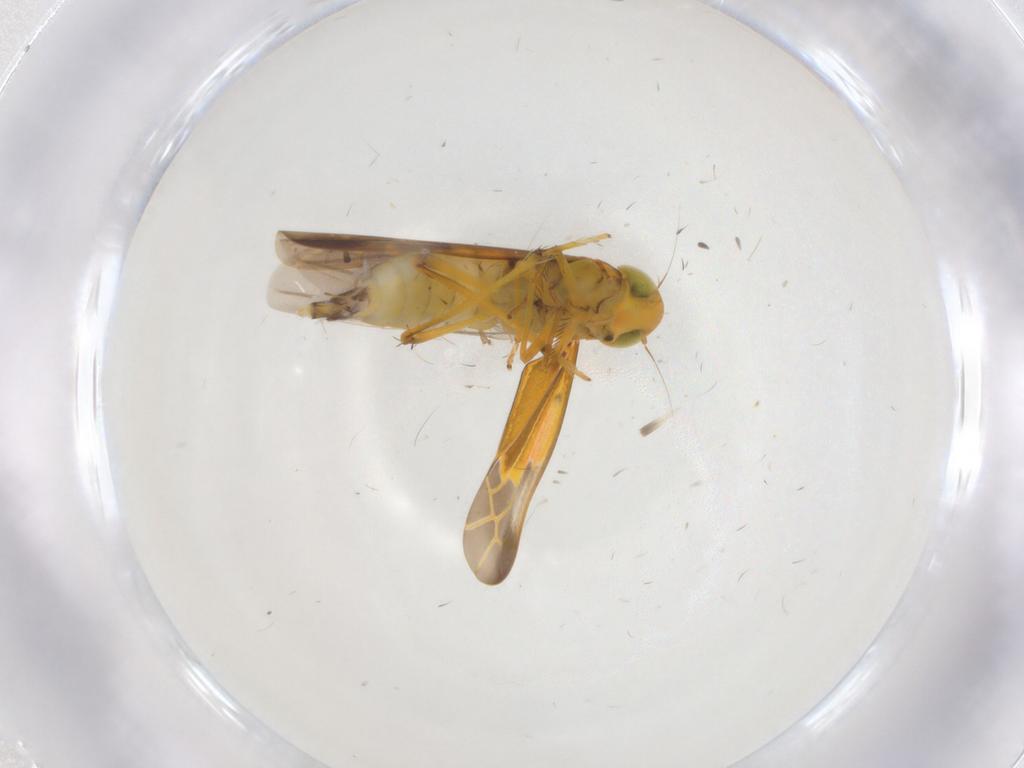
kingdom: Animalia
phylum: Arthropoda
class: Insecta
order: Hemiptera
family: Cicadellidae
